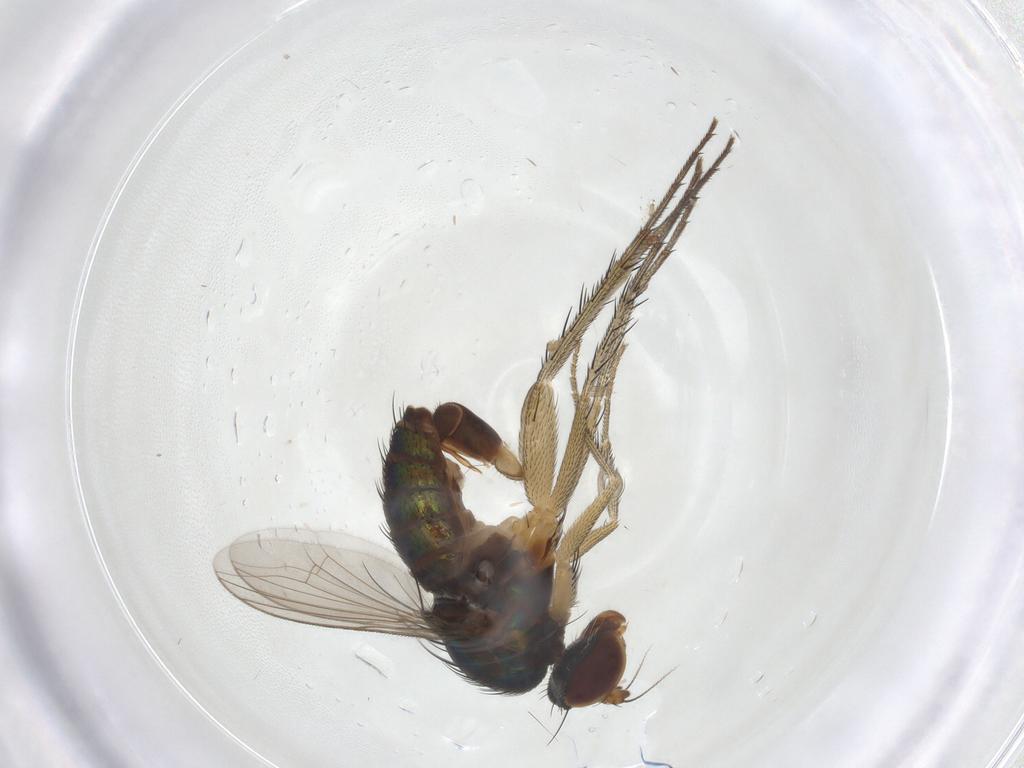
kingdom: Animalia
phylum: Arthropoda
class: Insecta
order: Diptera
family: Dolichopodidae
